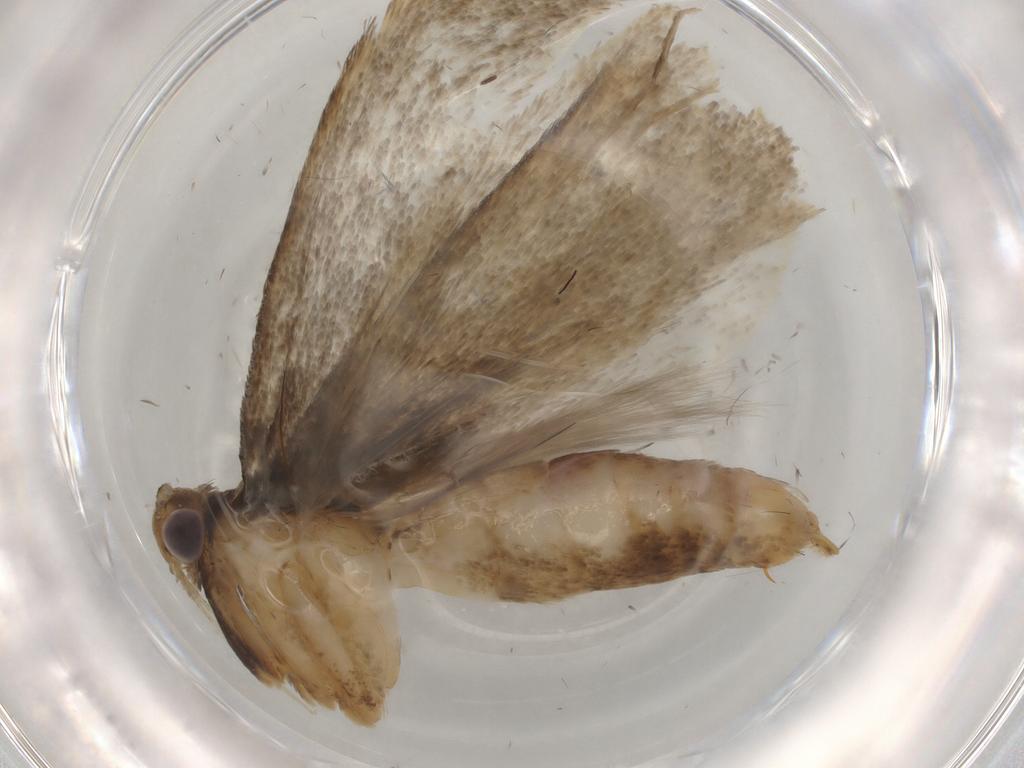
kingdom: Animalia
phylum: Arthropoda
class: Insecta
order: Lepidoptera
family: Gelechiidae
